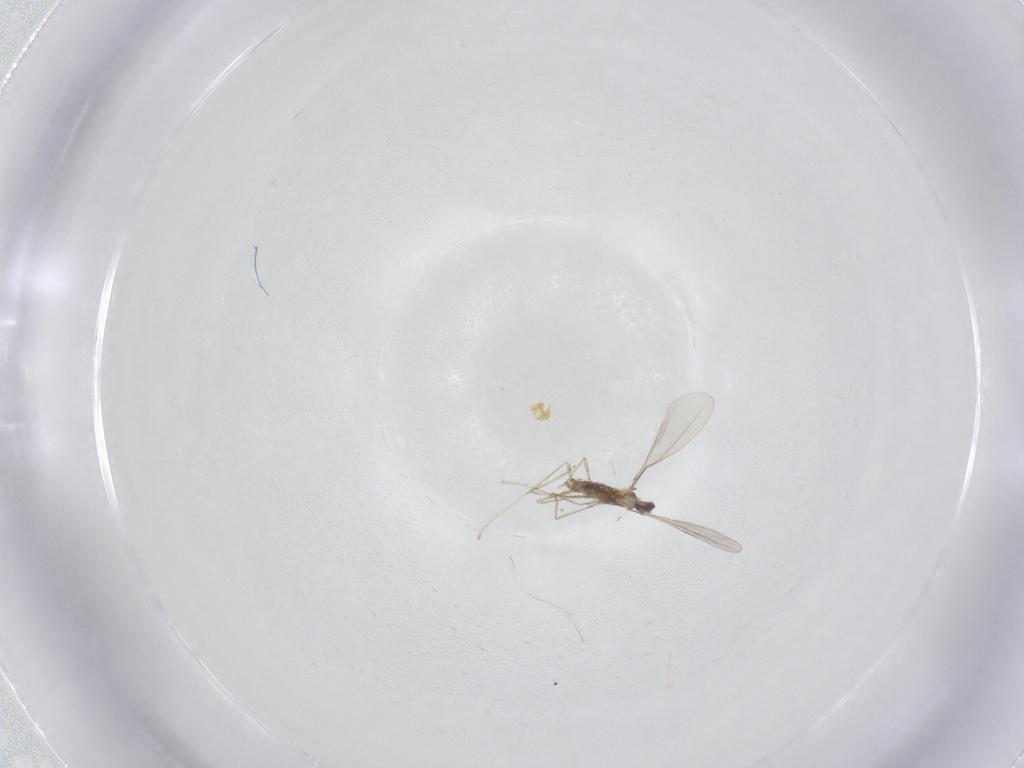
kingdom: Animalia
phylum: Arthropoda
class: Insecta
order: Diptera
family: Cecidomyiidae
